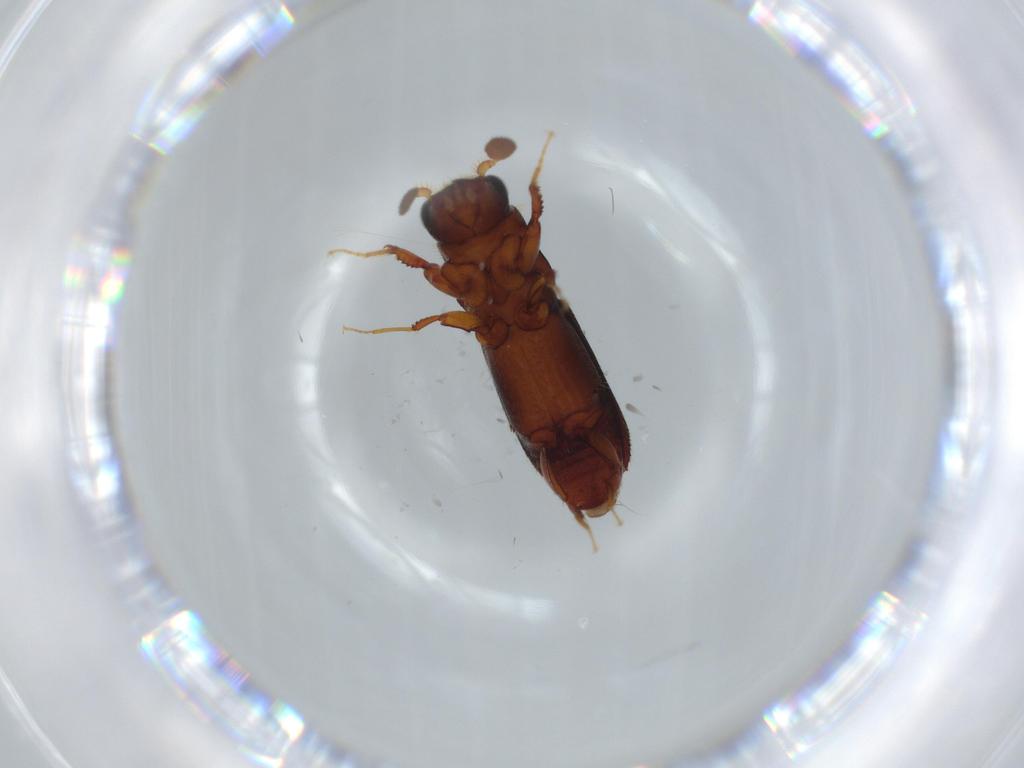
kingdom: Animalia
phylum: Arthropoda
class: Insecta
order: Coleoptera
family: Curculionidae
